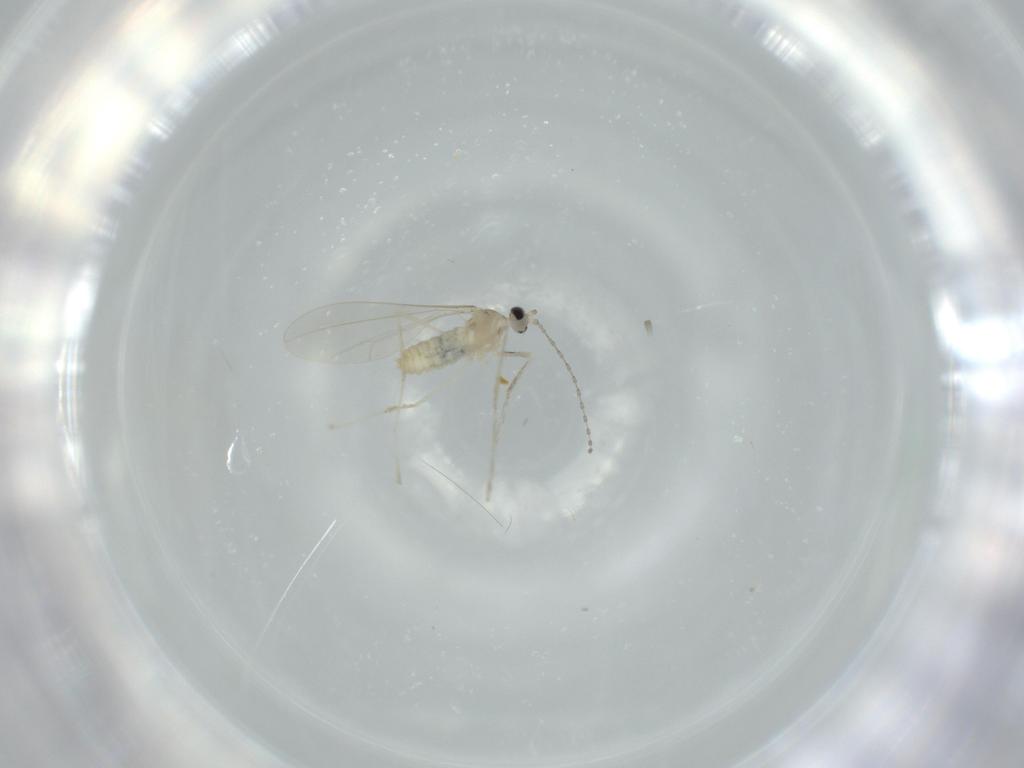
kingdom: Animalia
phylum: Arthropoda
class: Insecta
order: Diptera
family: Cecidomyiidae
